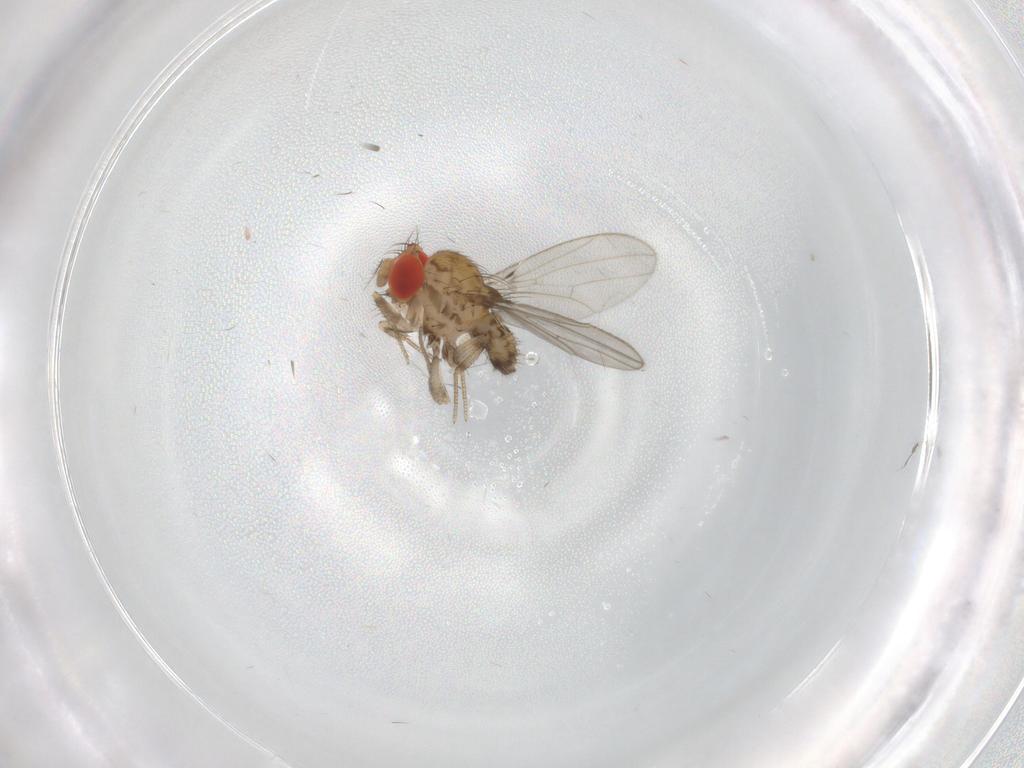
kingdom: Animalia
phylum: Arthropoda
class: Insecta
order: Diptera
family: Drosophilidae
